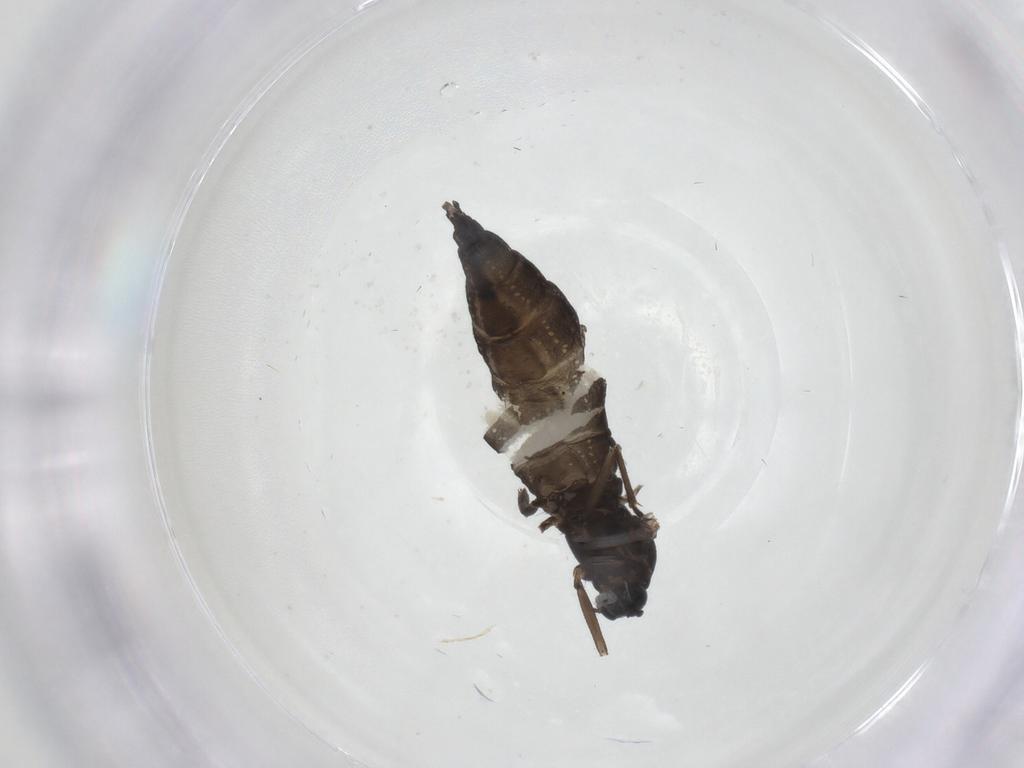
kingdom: Animalia
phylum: Arthropoda
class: Insecta
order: Diptera
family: Sciaridae
